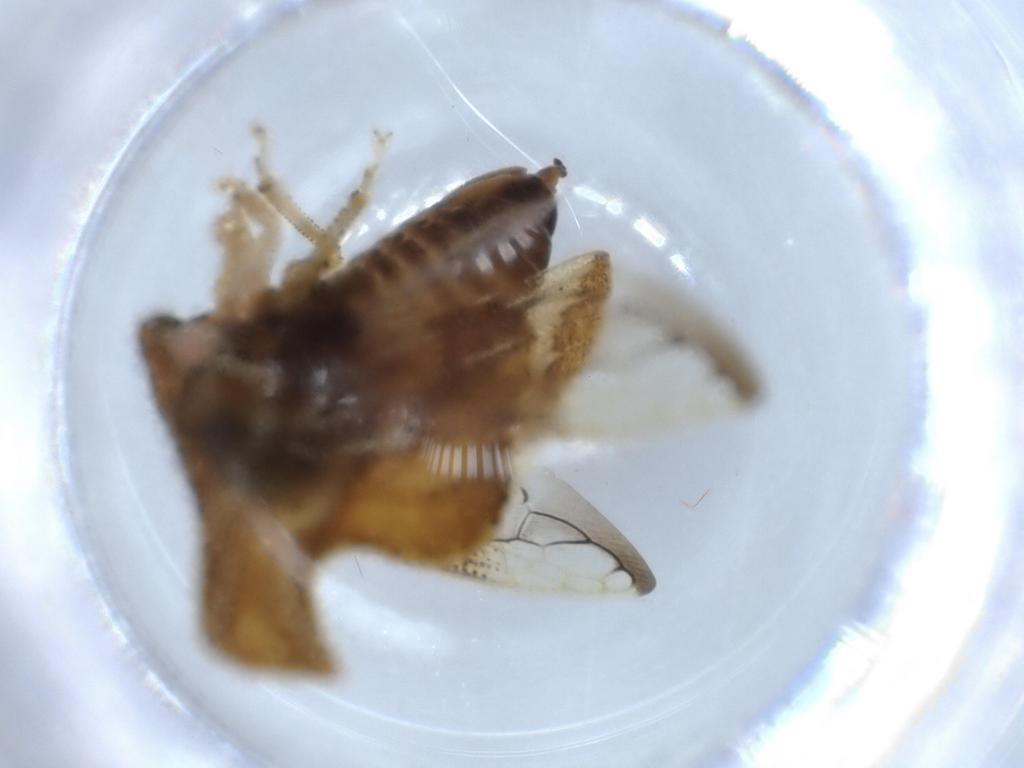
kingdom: Animalia
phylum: Arthropoda
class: Insecta
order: Hemiptera
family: Membracidae
